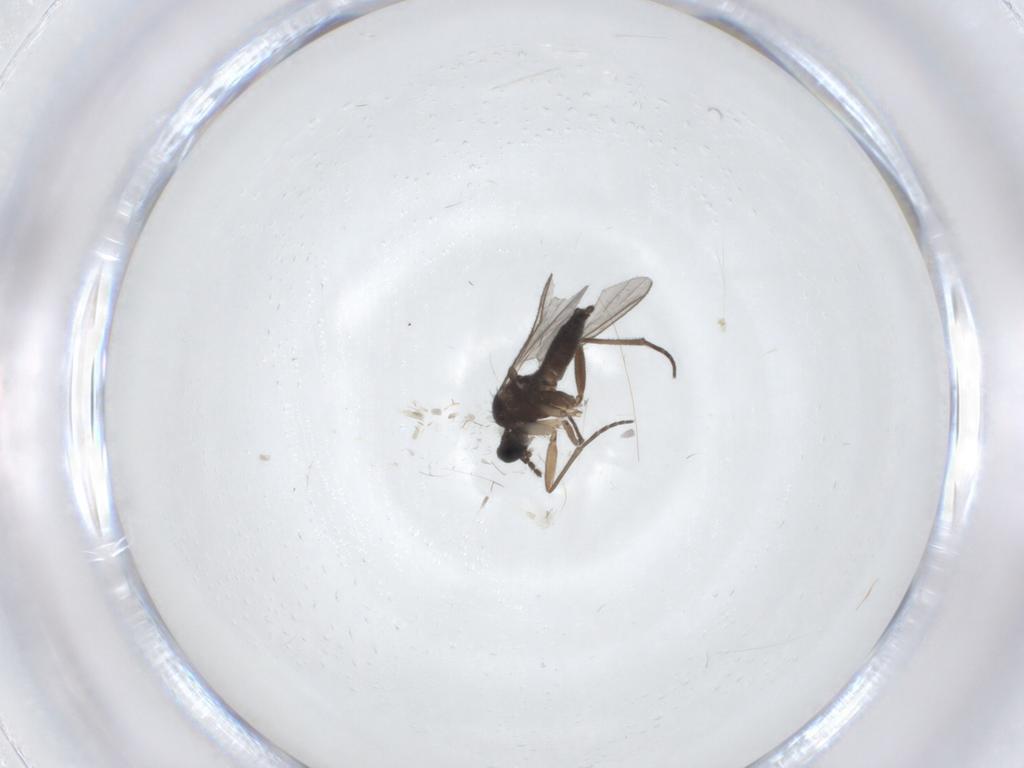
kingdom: Animalia
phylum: Arthropoda
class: Insecta
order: Diptera
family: Sciaridae
